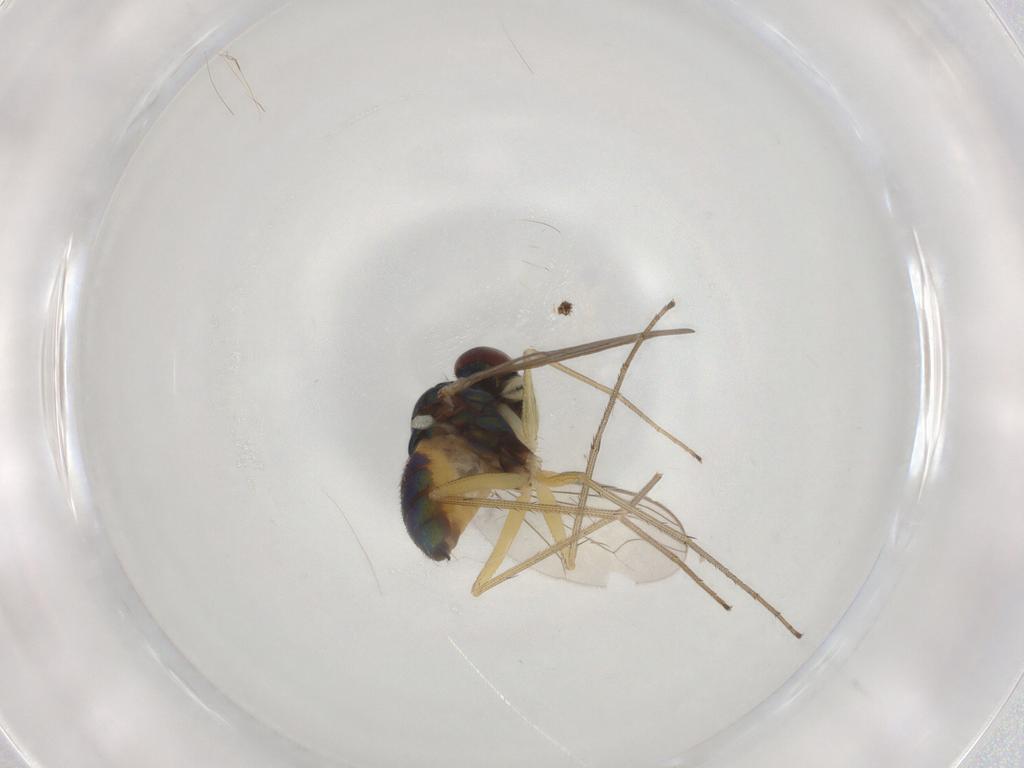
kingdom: Animalia
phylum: Arthropoda
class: Insecta
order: Diptera
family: Dolichopodidae
